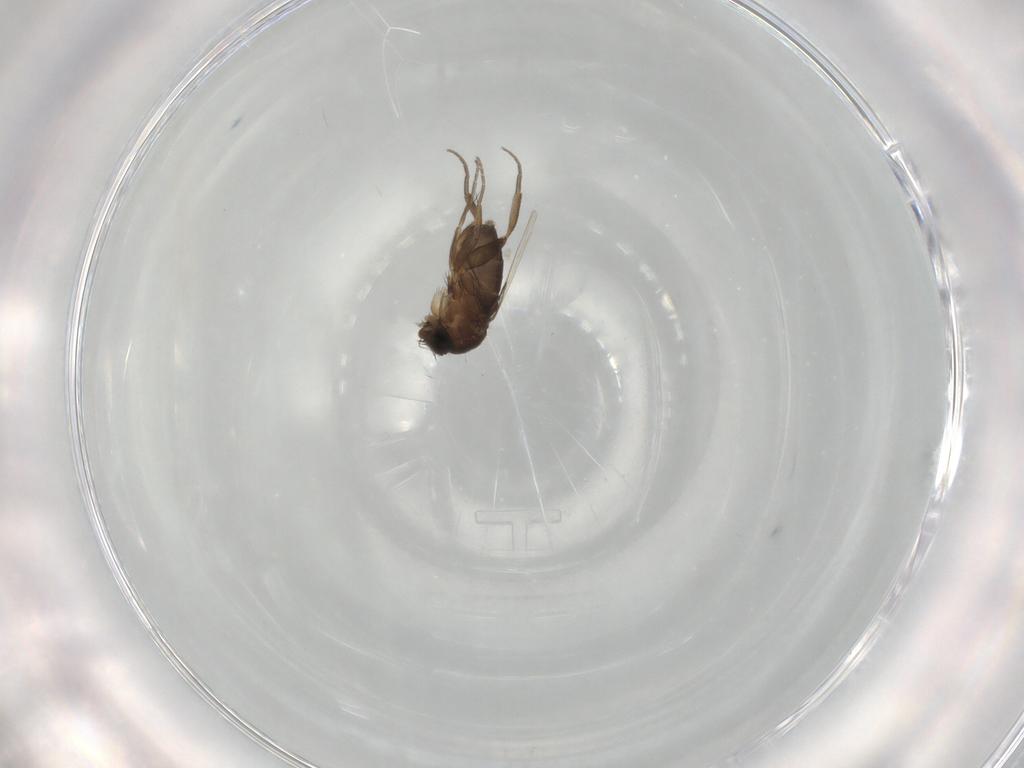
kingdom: Animalia
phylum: Arthropoda
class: Insecta
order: Diptera
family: Phoridae
